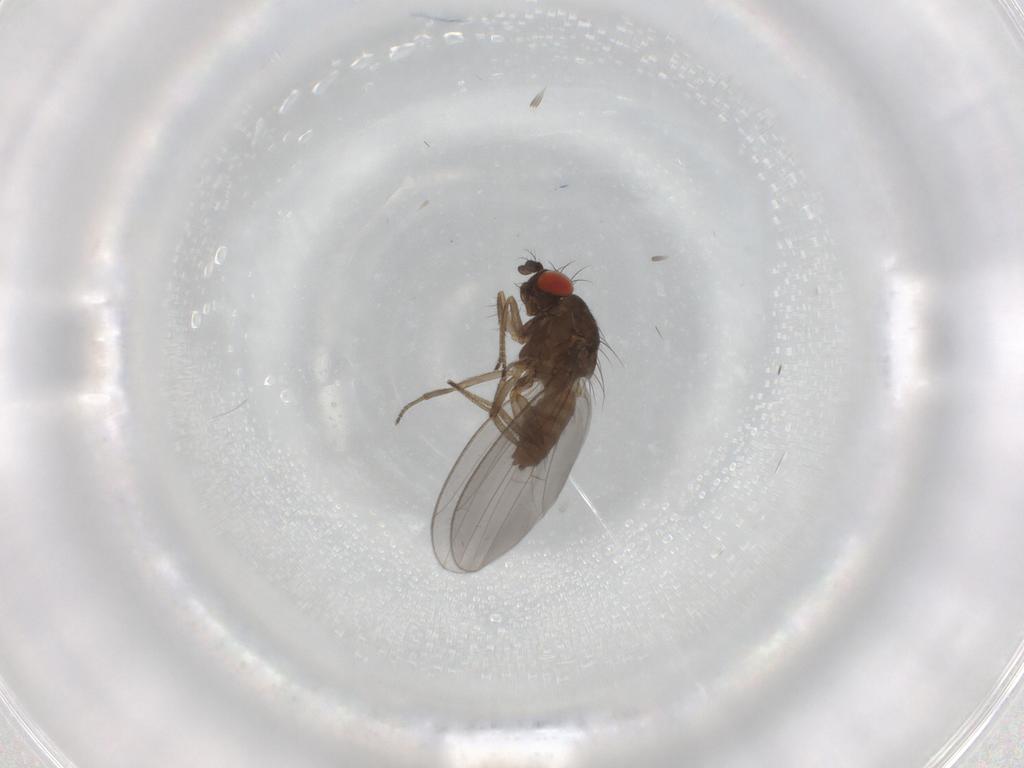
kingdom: Animalia
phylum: Arthropoda
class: Insecta
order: Diptera
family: Drosophilidae
